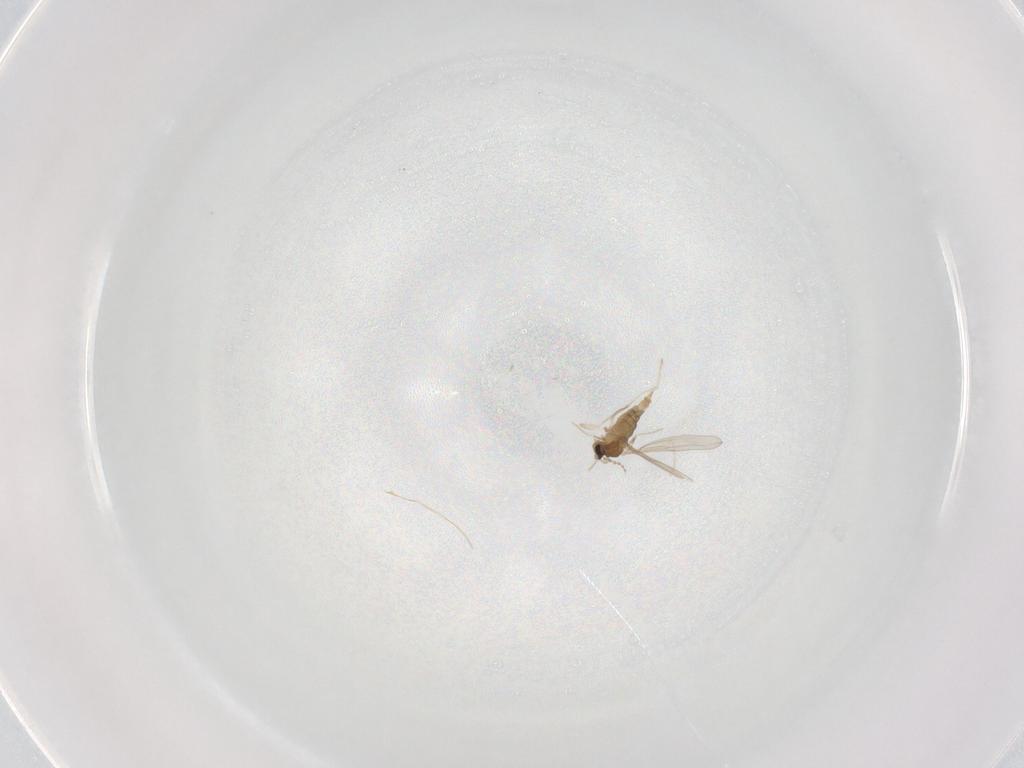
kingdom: Animalia
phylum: Arthropoda
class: Insecta
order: Diptera
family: Cecidomyiidae
